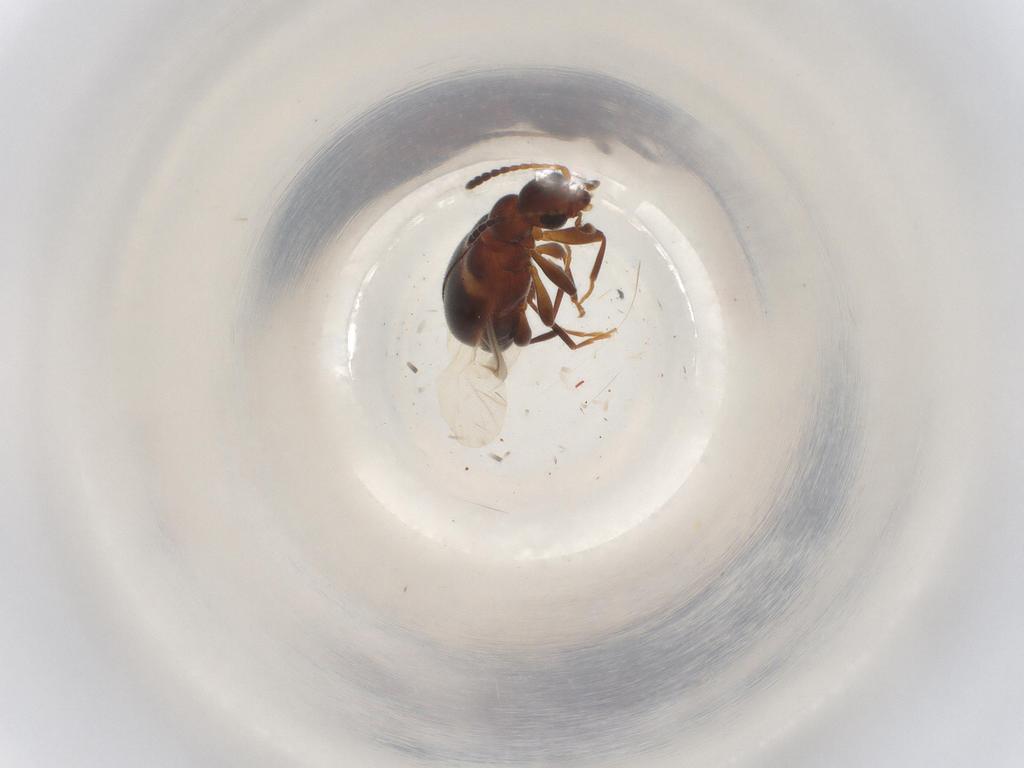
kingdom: Animalia
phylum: Arthropoda
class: Insecta
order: Coleoptera
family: Anthicidae
